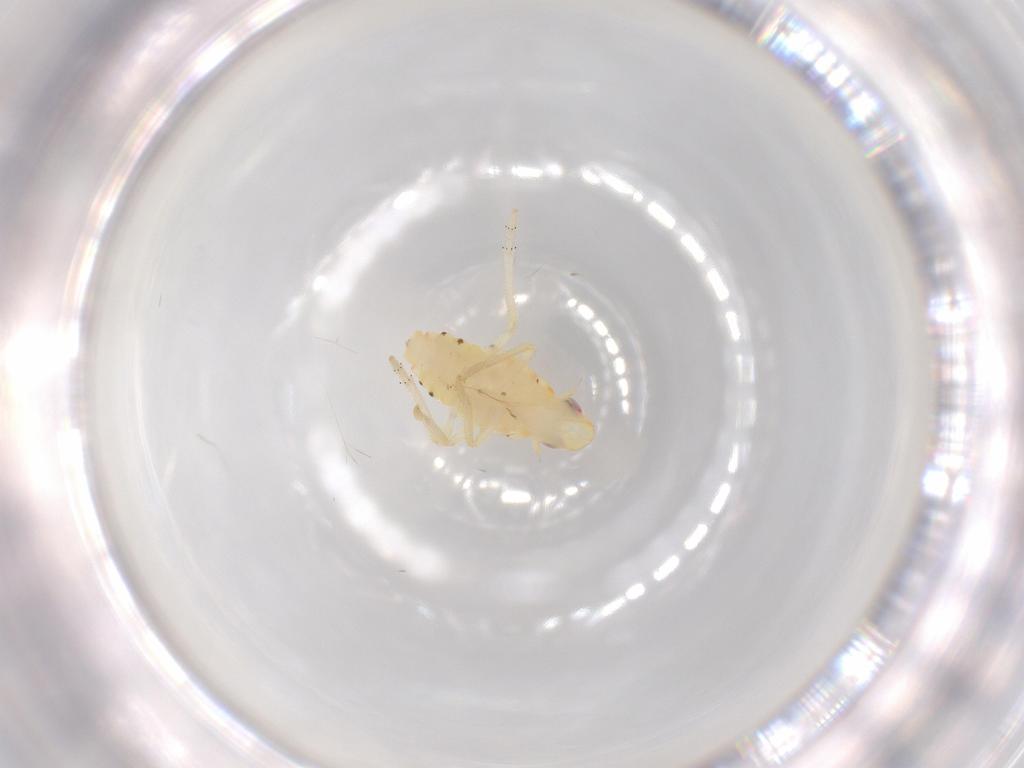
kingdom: Animalia
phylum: Arthropoda
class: Insecta
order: Hemiptera
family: Tropiduchidae
